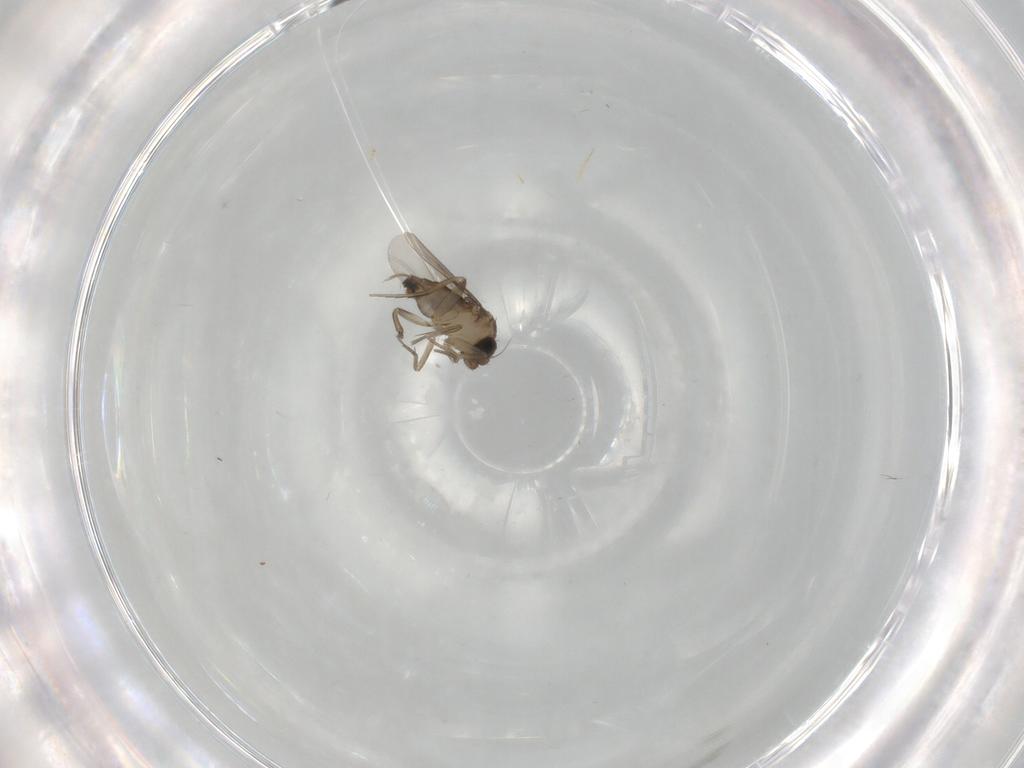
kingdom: Animalia
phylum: Arthropoda
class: Insecta
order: Diptera
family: Phoridae
